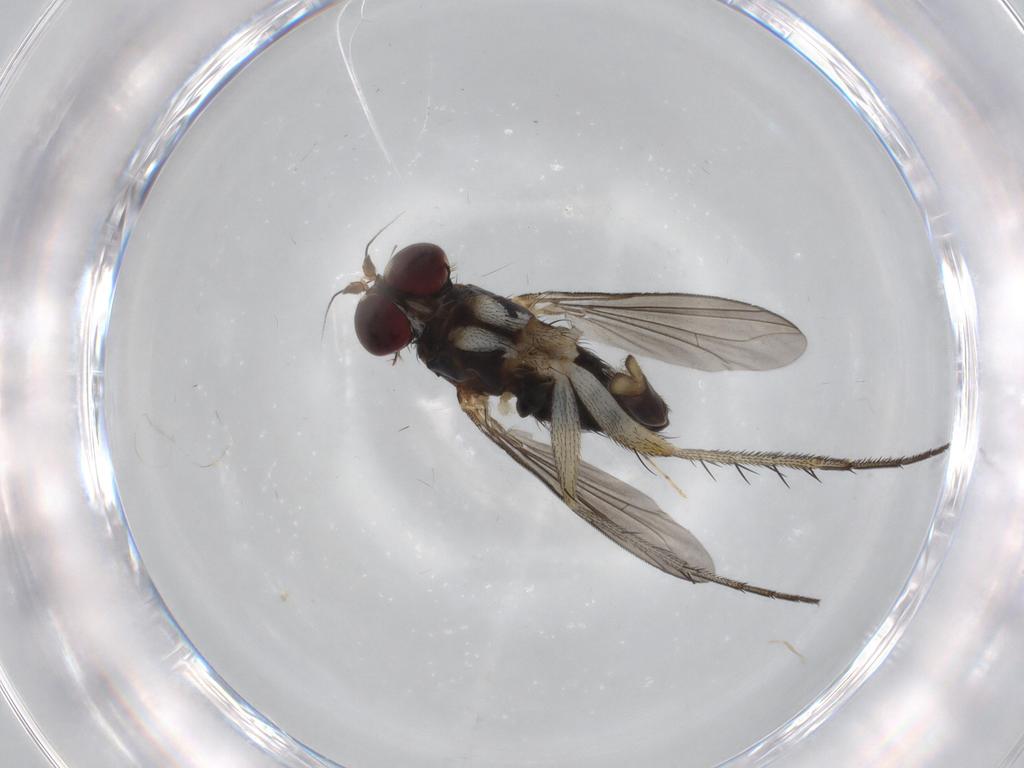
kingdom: Animalia
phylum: Arthropoda
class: Insecta
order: Diptera
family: Dolichopodidae
